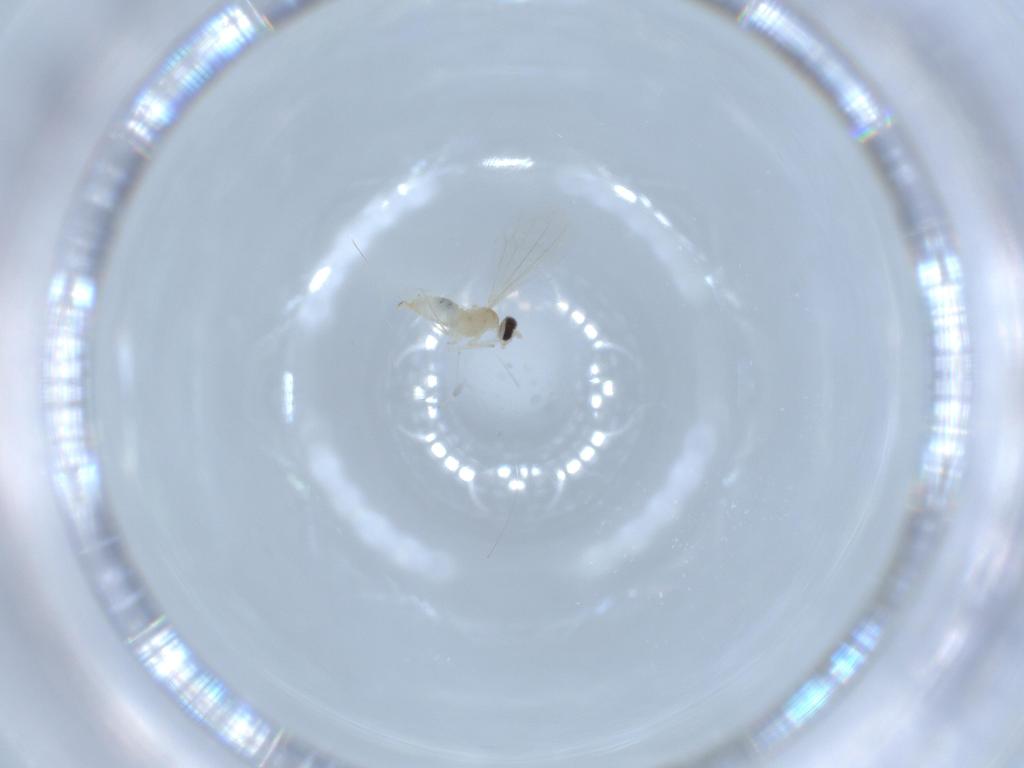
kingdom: Animalia
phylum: Arthropoda
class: Insecta
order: Diptera
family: Cecidomyiidae
